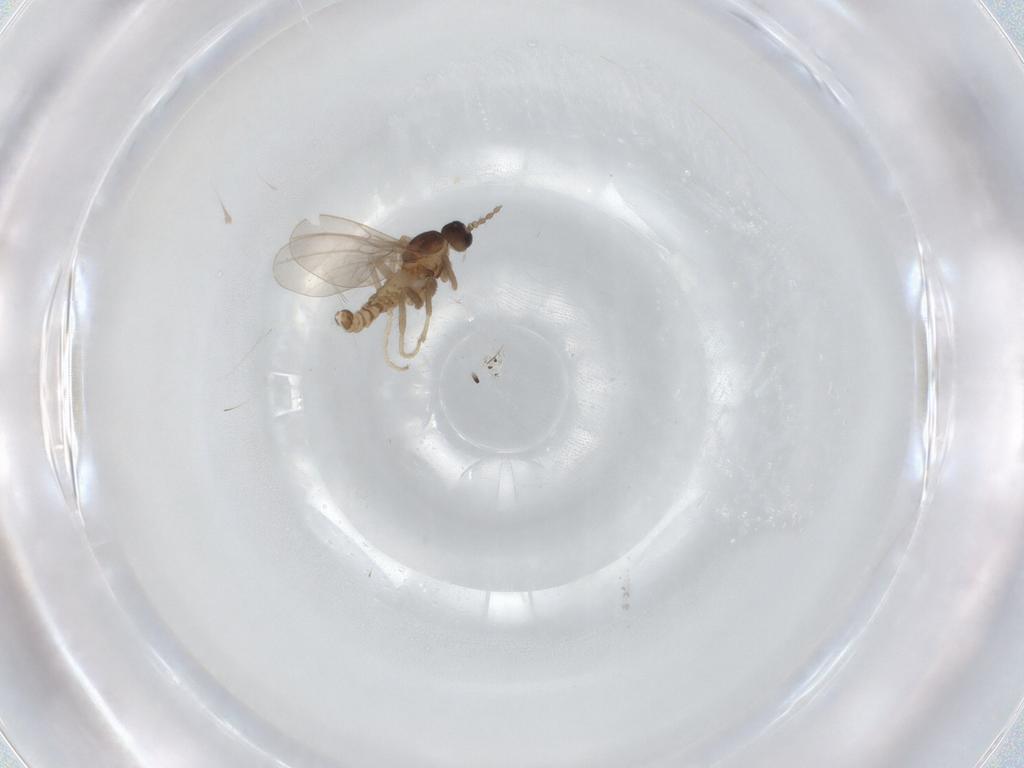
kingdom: Animalia
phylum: Arthropoda
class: Insecta
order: Diptera
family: Cecidomyiidae
